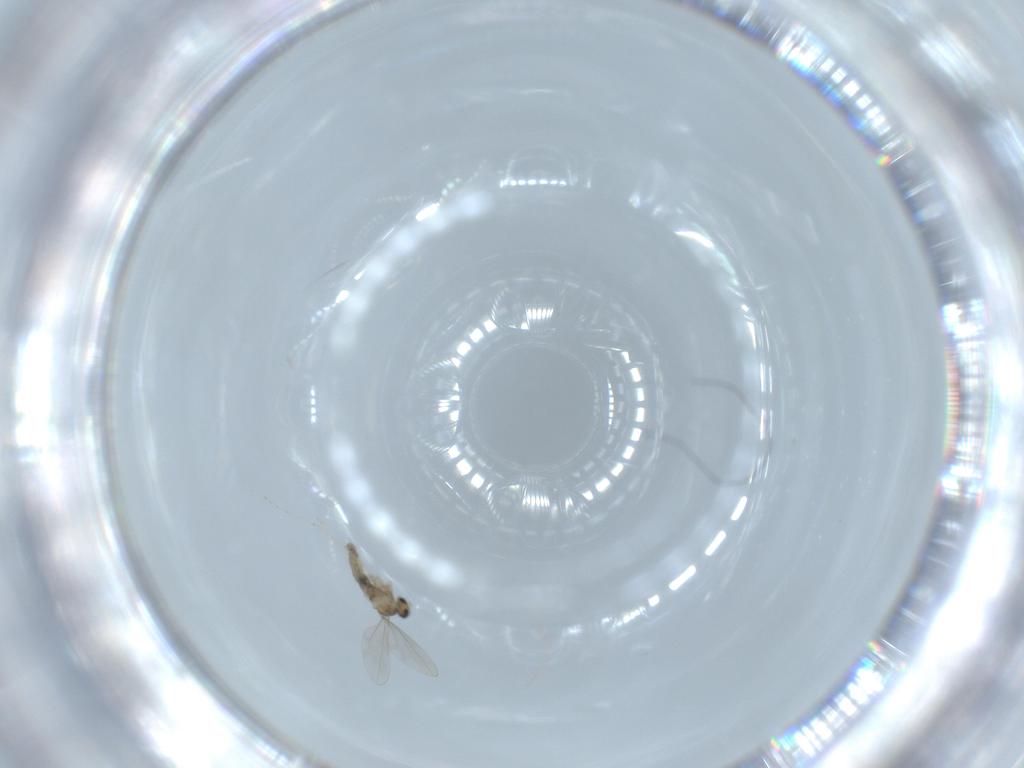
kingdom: Animalia
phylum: Arthropoda
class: Insecta
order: Diptera
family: Cecidomyiidae
